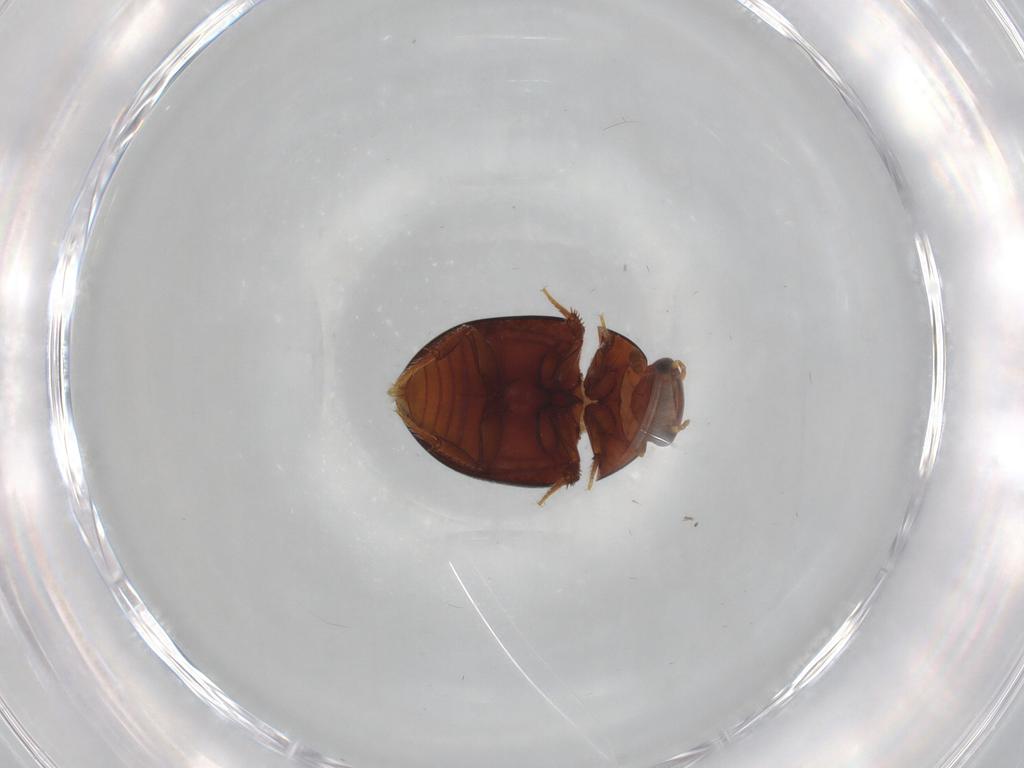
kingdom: Animalia
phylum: Arthropoda
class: Insecta
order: Coleoptera
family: Hydrophilidae
